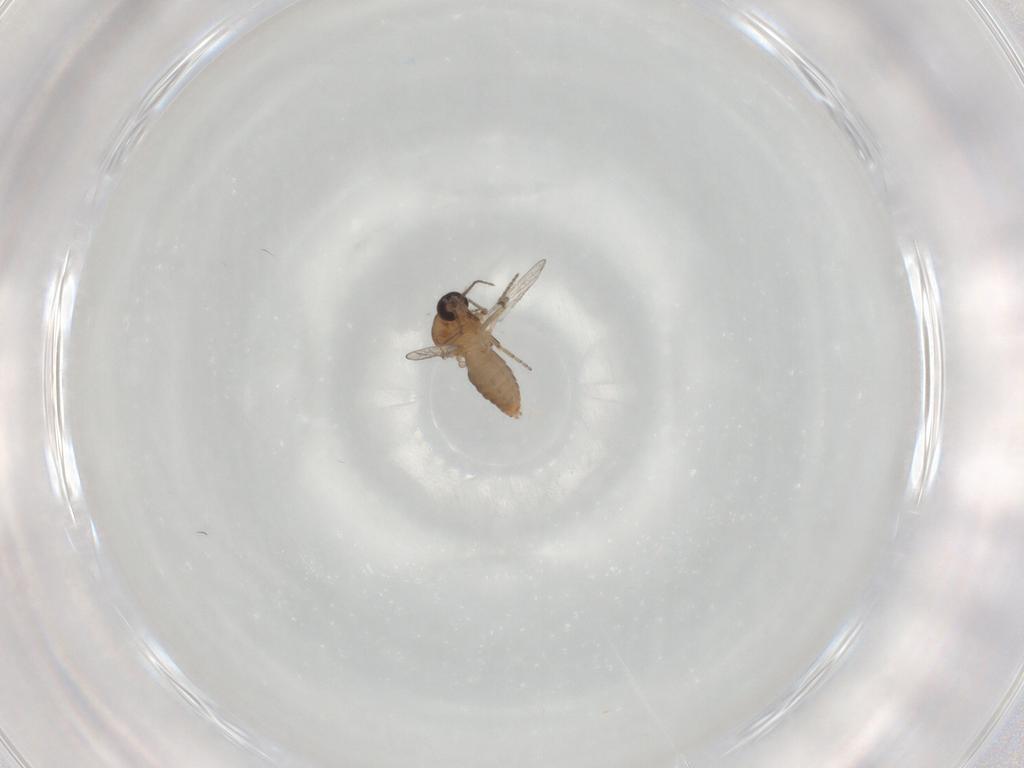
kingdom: Animalia
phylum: Arthropoda
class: Insecta
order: Diptera
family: Ceratopogonidae
